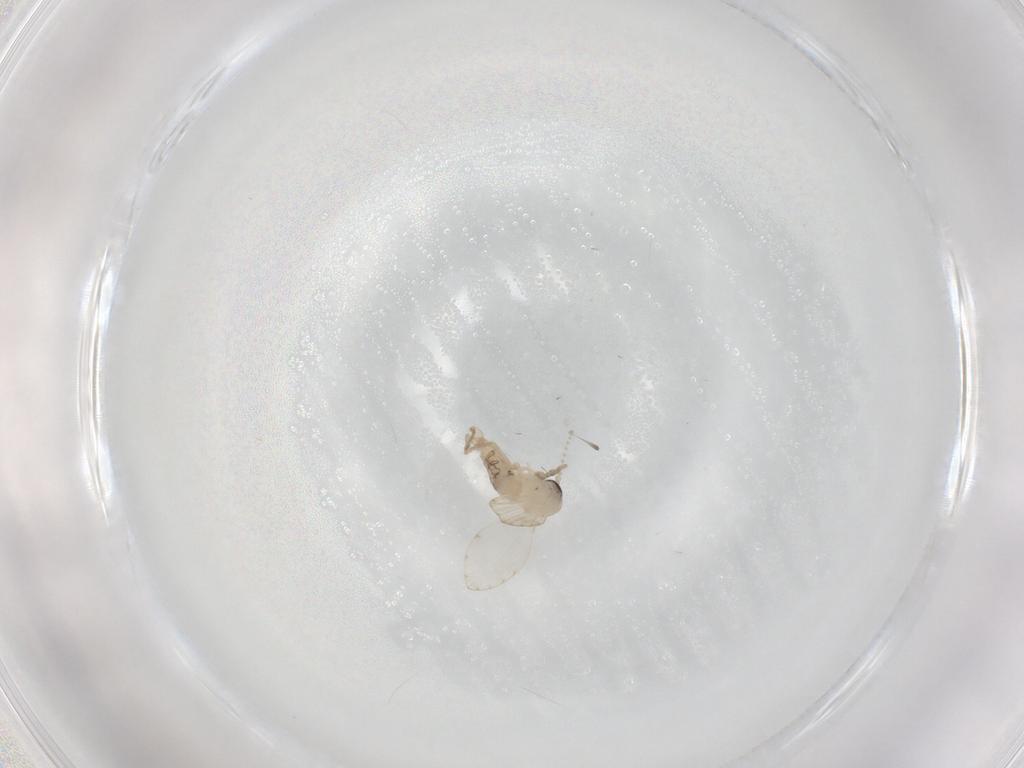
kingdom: Animalia
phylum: Arthropoda
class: Insecta
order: Diptera
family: Psychodidae
